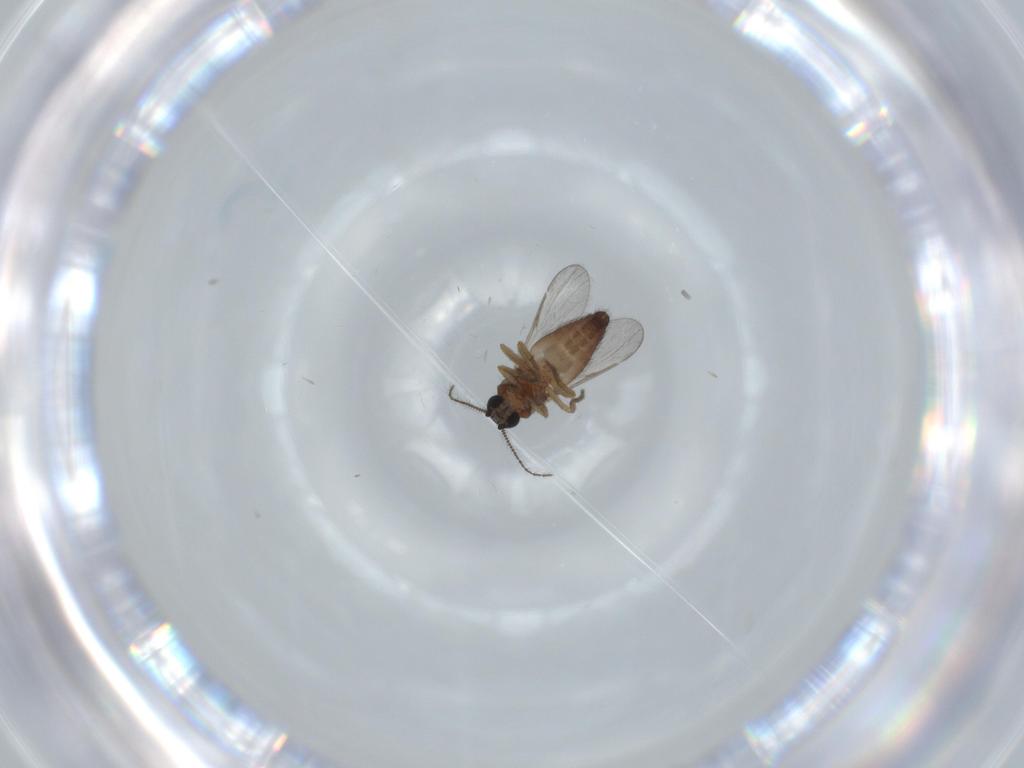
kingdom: Animalia
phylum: Arthropoda
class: Insecta
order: Diptera
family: Ceratopogonidae
